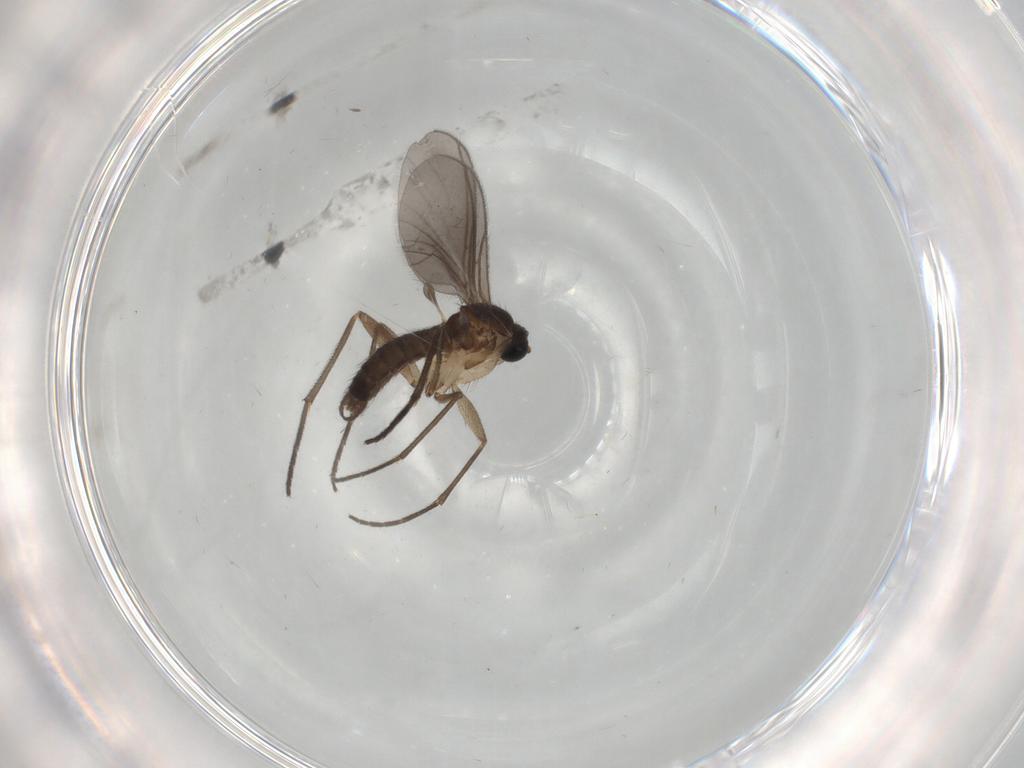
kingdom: Animalia
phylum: Arthropoda
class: Insecta
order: Diptera
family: Sciaridae
